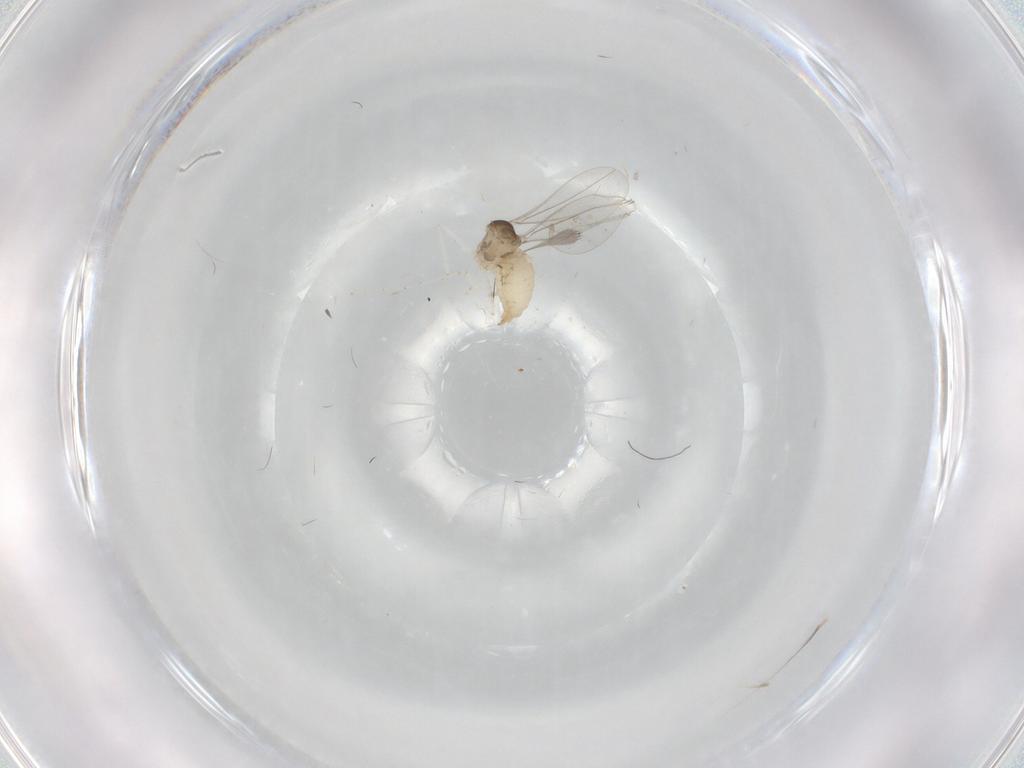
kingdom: Animalia
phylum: Arthropoda
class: Insecta
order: Diptera
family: Cecidomyiidae
